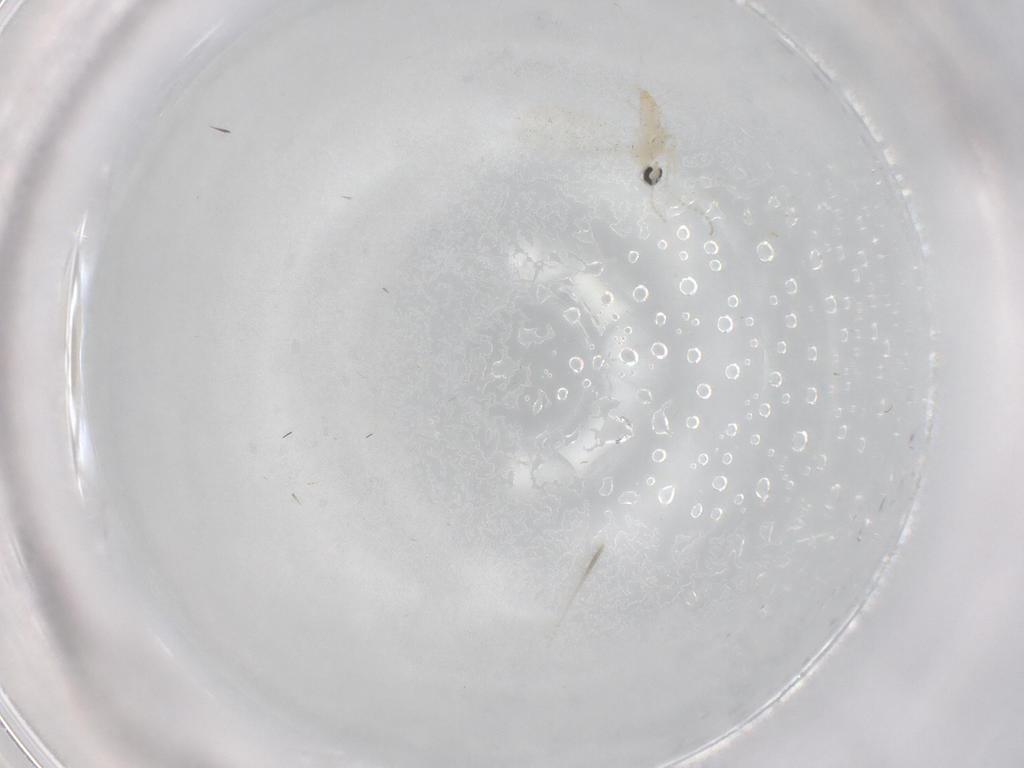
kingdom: Animalia
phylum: Arthropoda
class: Insecta
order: Diptera
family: Cecidomyiidae
